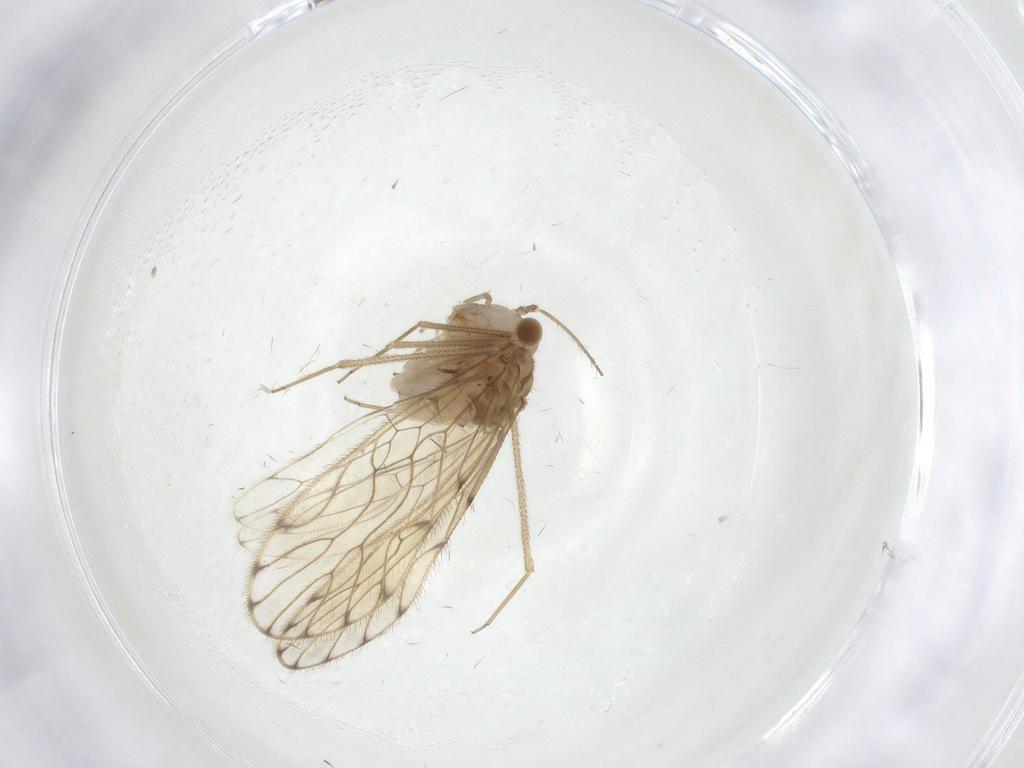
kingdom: Animalia
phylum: Arthropoda
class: Insecta
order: Psocodea
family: Epipsocidae
